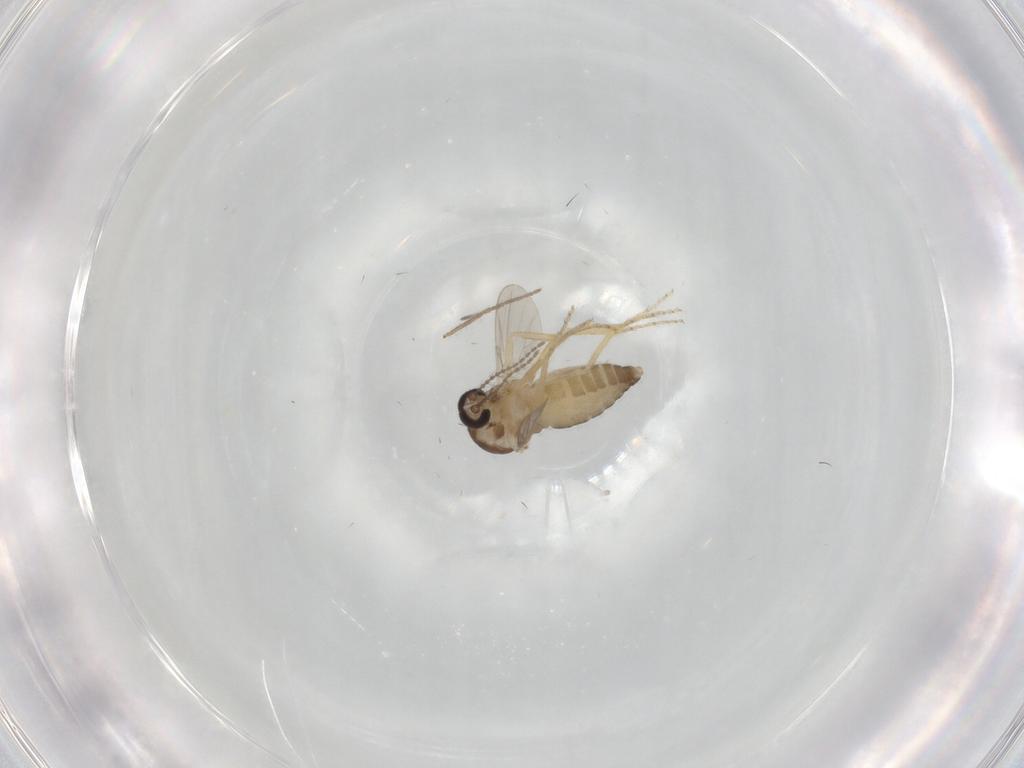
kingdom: Animalia
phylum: Arthropoda
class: Insecta
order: Diptera
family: Ceratopogonidae
